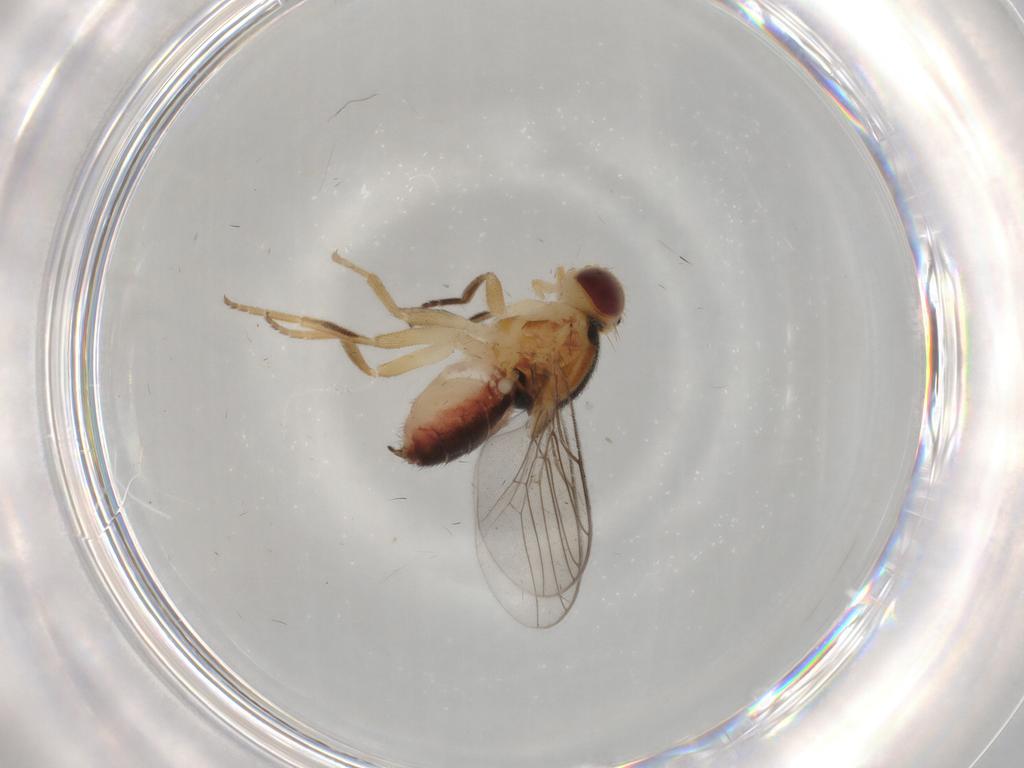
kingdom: Animalia
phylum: Arthropoda
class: Insecta
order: Diptera
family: Chloropidae
